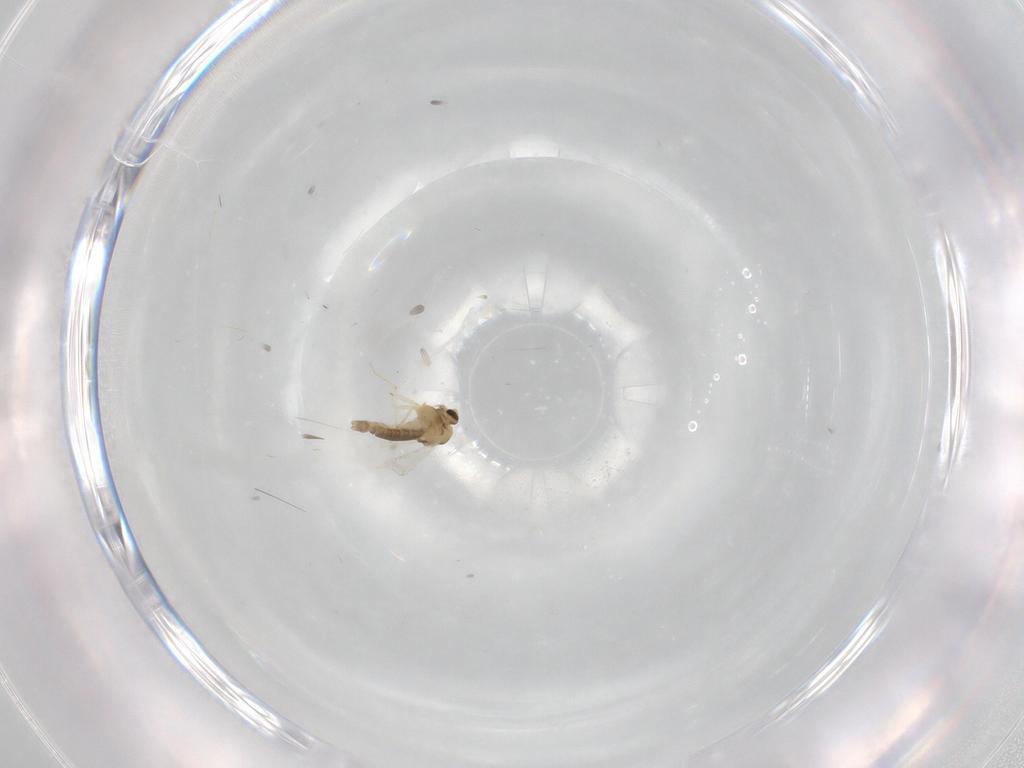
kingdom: Animalia
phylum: Arthropoda
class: Insecta
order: Diptera
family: Chironomidae
